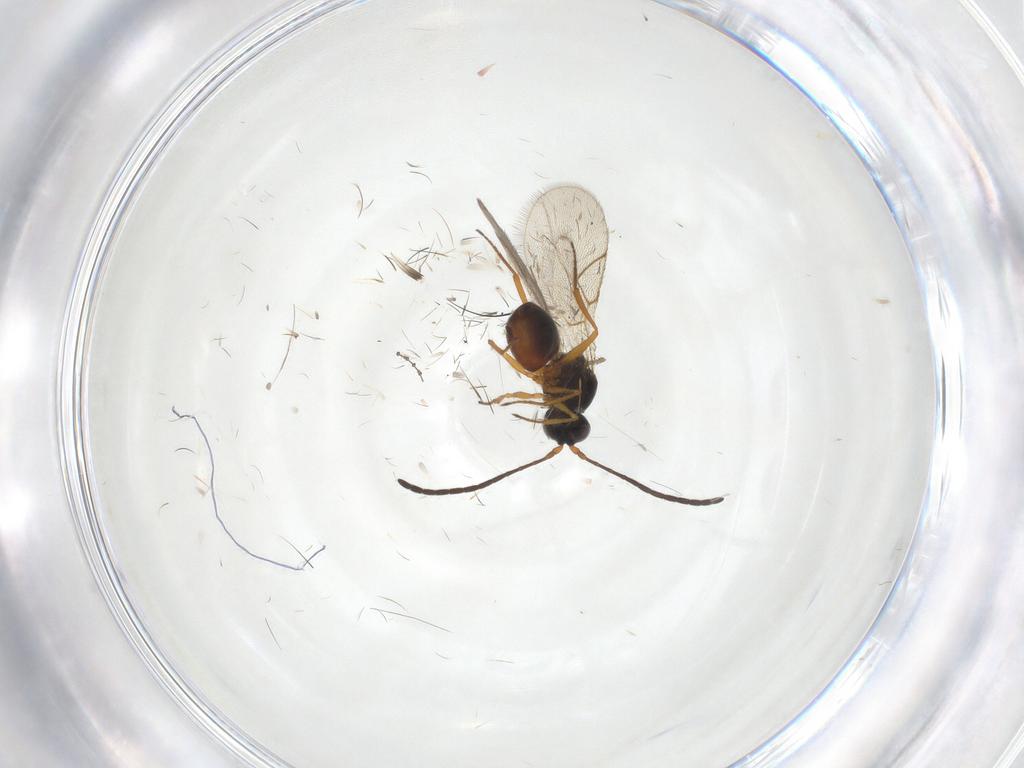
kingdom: Animalia
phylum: Arthropoda
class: Insecta
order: Hymenoptera
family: Figitidae
